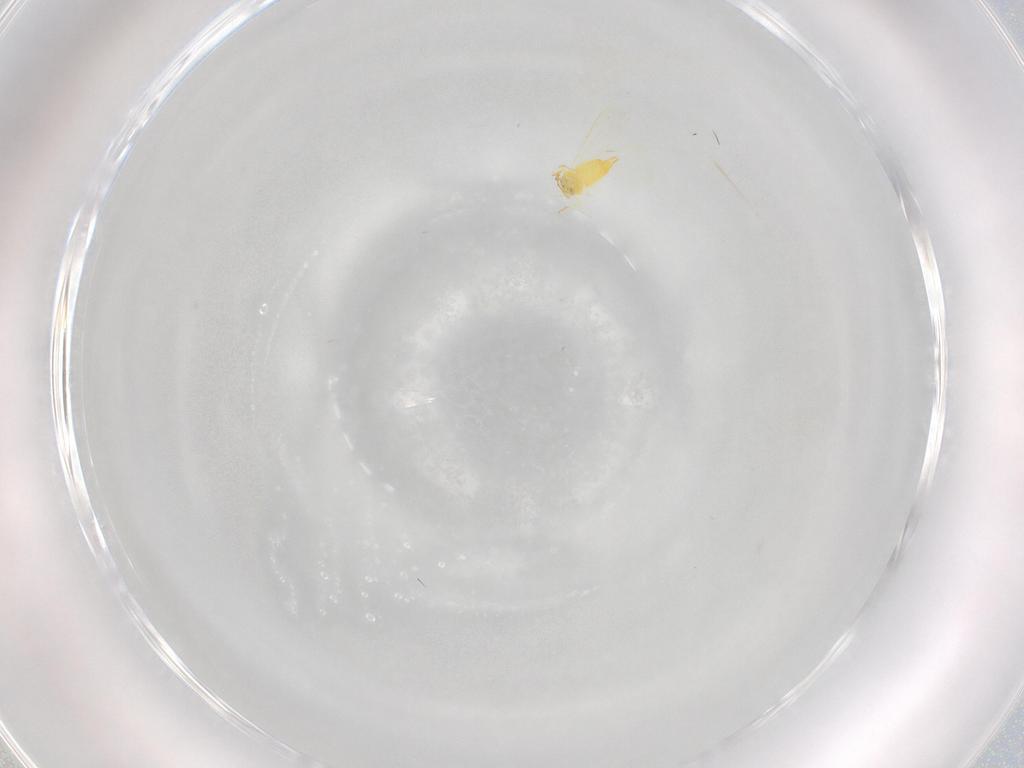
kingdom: Animalia
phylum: Arthropoda
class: Insecta
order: Hemiptera
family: Aleyrodidae
